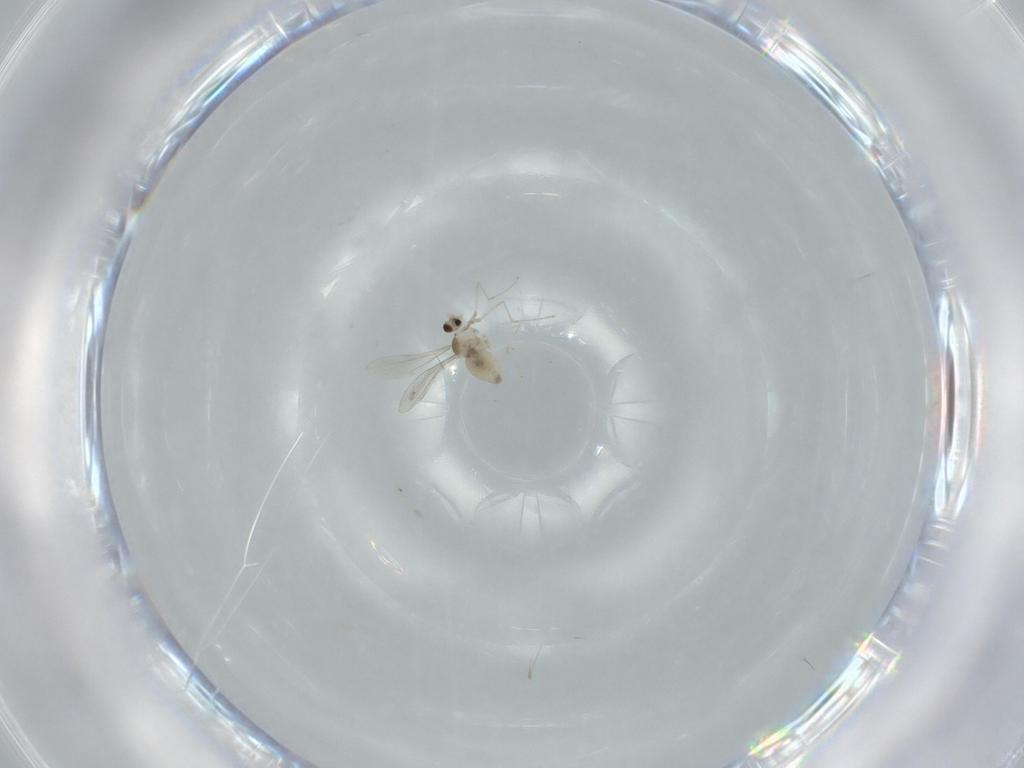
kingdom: Animalia
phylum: Arthropoda
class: Insecta
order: Diptera
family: Cecidomyiidae
